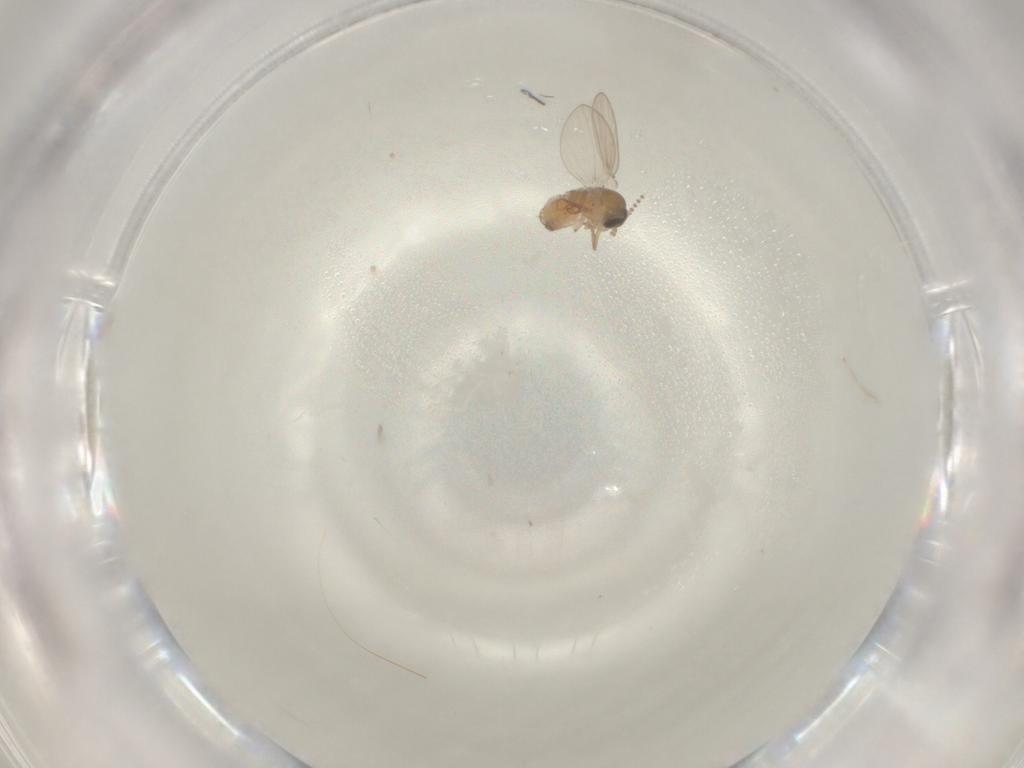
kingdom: Animalia
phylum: Arthropoda
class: Insecta
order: Diptera
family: Psychodidae
